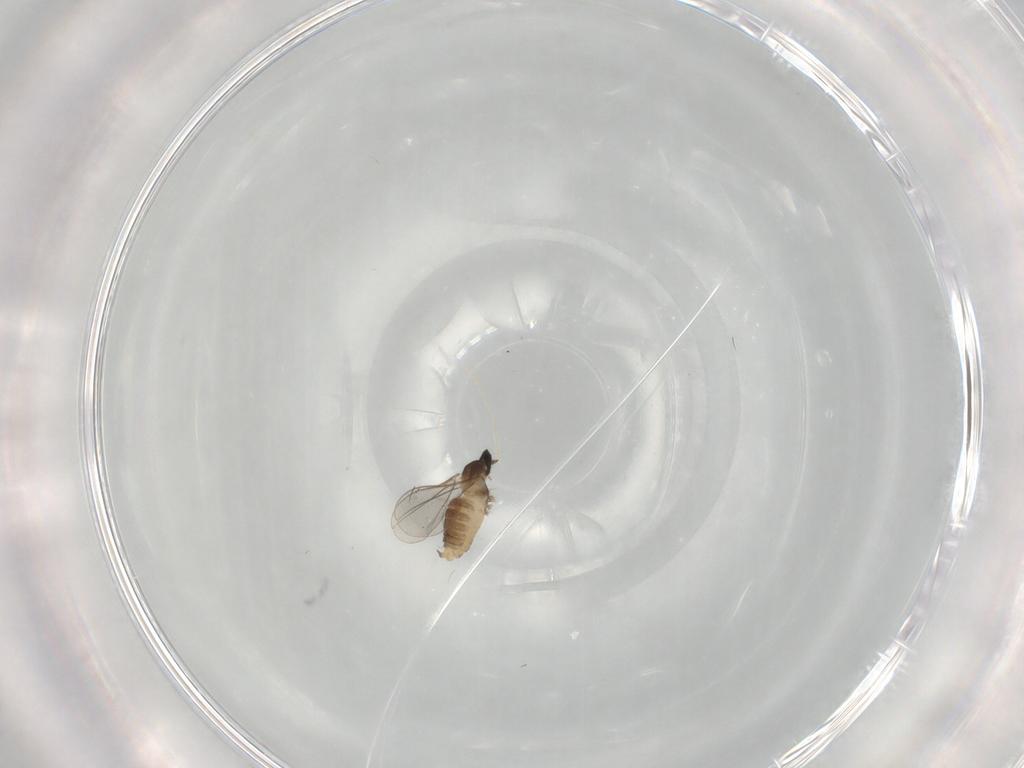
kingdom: Animalia
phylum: Arthropoda
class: Insecta
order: Diptera
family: Cecidomyiidae
